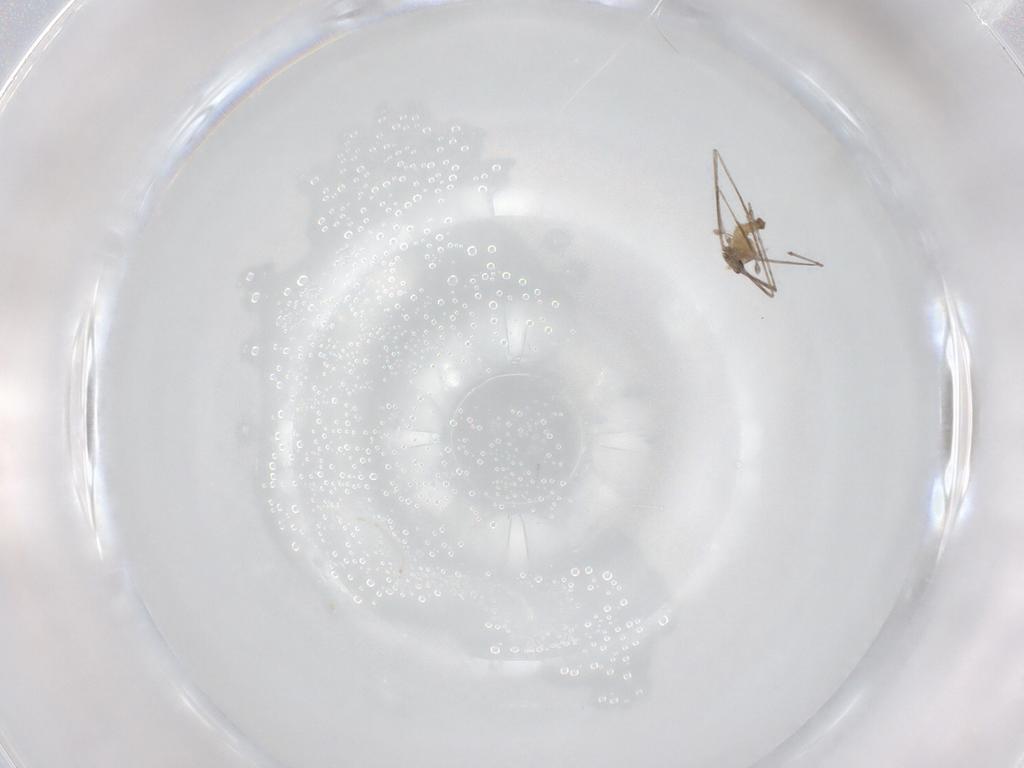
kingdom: Animalia
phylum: Arthropoda
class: Insecta
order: Diptera
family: Cecidomyiidae
